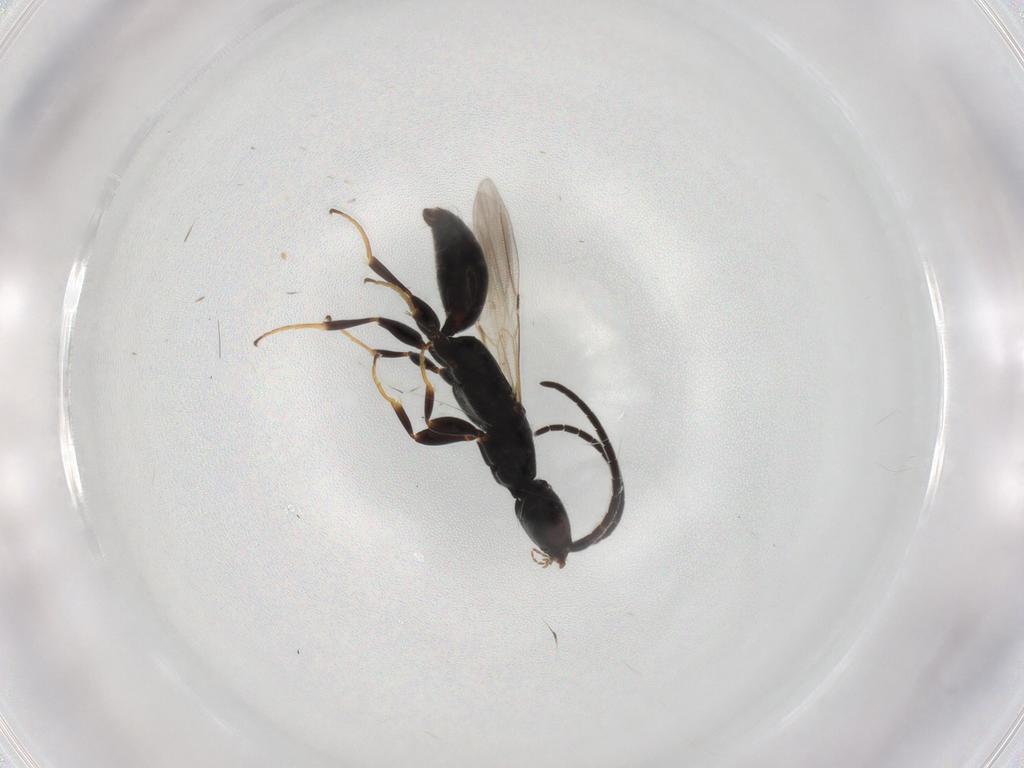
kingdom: Animalia
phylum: Arthropoda
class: Insecta
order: Hymenoptera
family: Bethylidae
